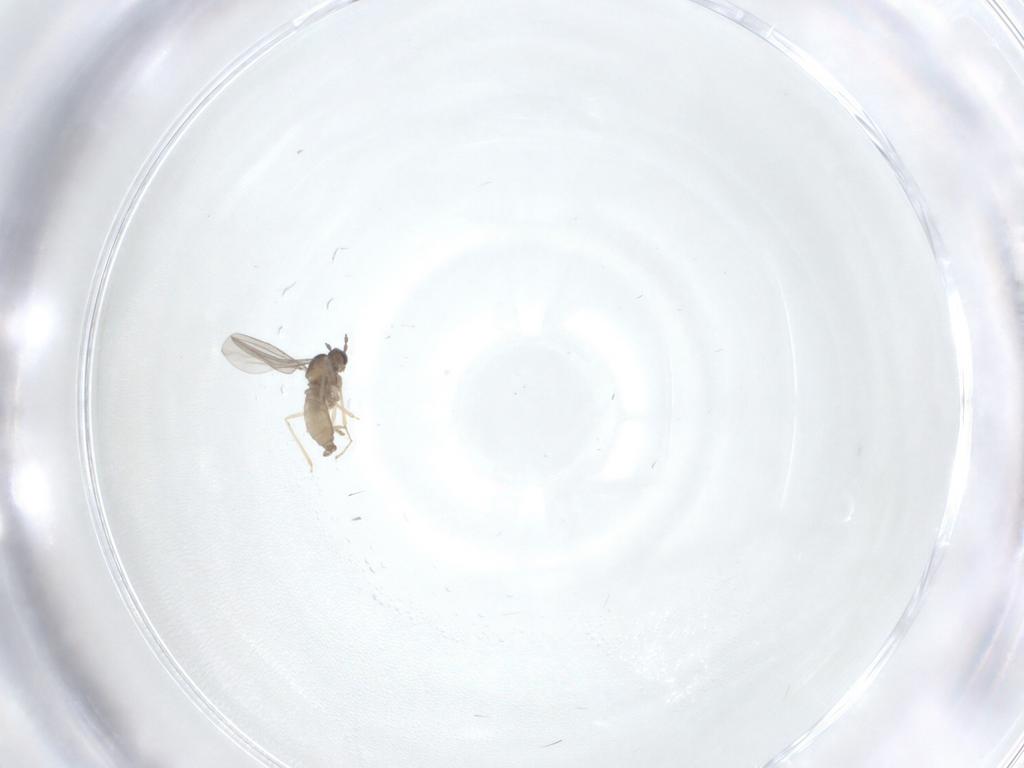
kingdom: Animalia
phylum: Arthropoda
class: Insecta
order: Diptera
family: Cecidomyiidae
